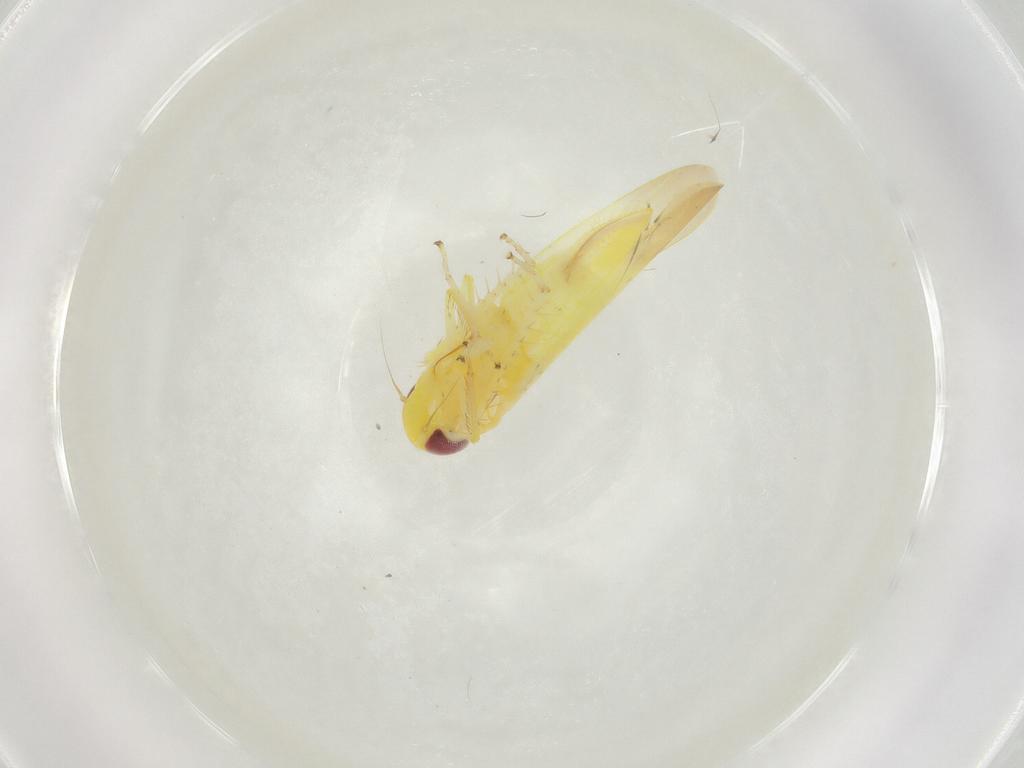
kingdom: Animalia
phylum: Arthropoda
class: Insecta
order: Hemiptera
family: Cicadellidae
